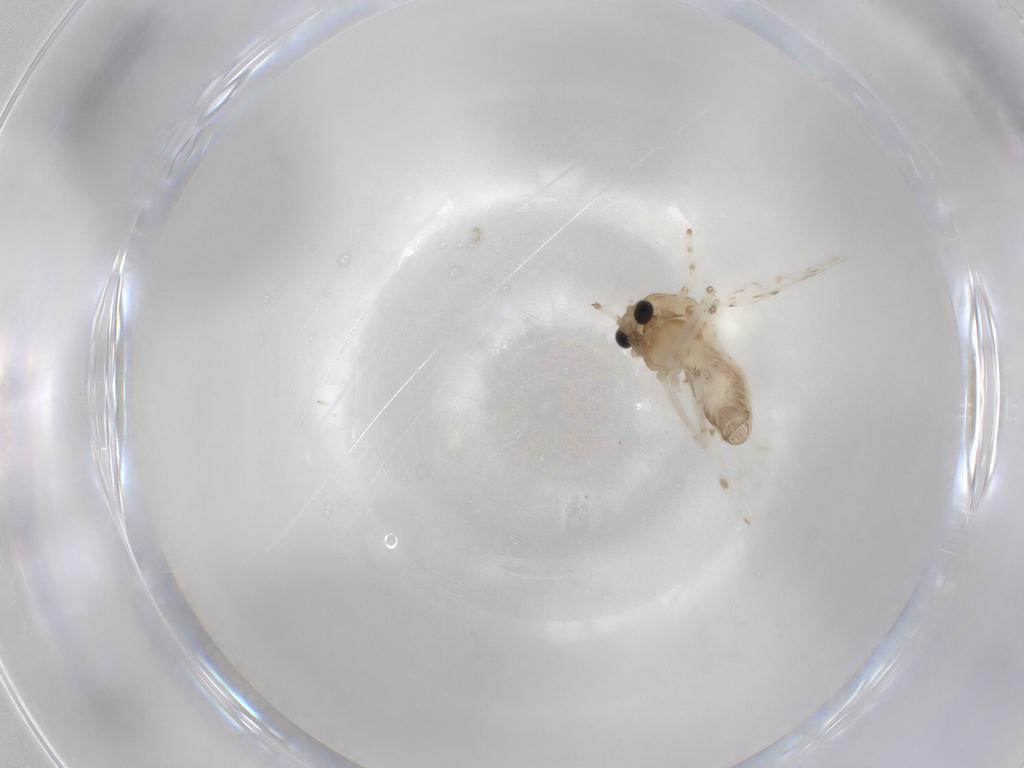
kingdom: Animalia
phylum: Arthropoda
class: Insecta
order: Diptera
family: Chironomidae
